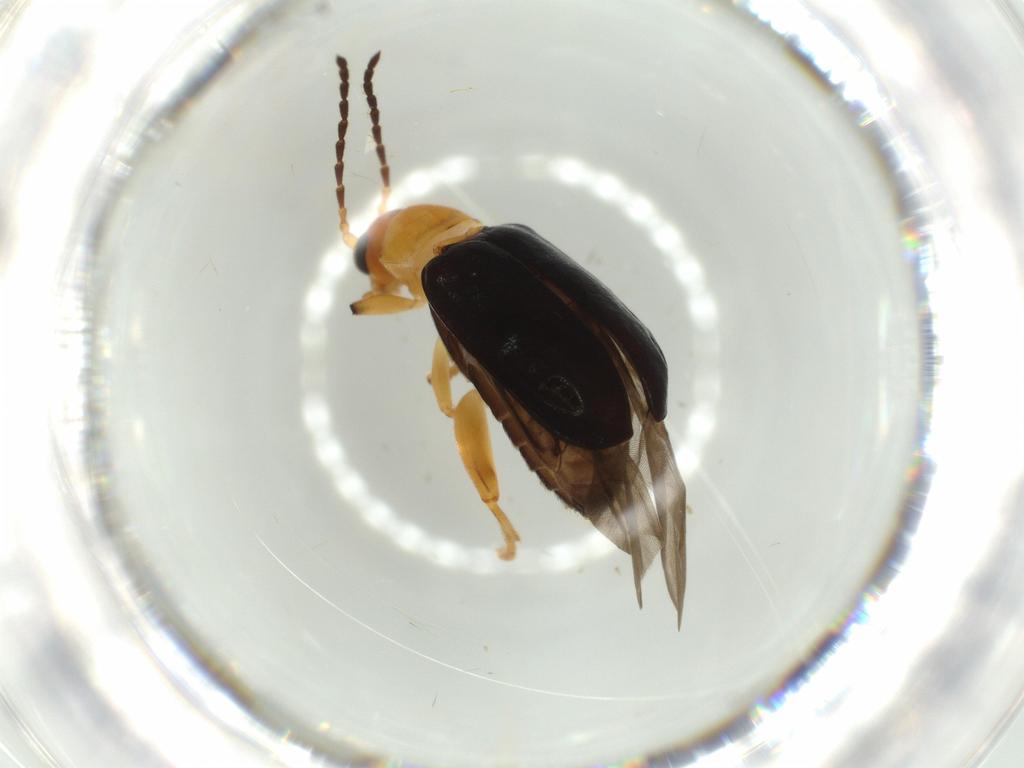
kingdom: Animalia
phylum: Arthropoda
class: Insecta
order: Coleoptera
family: Chrysomelidae
